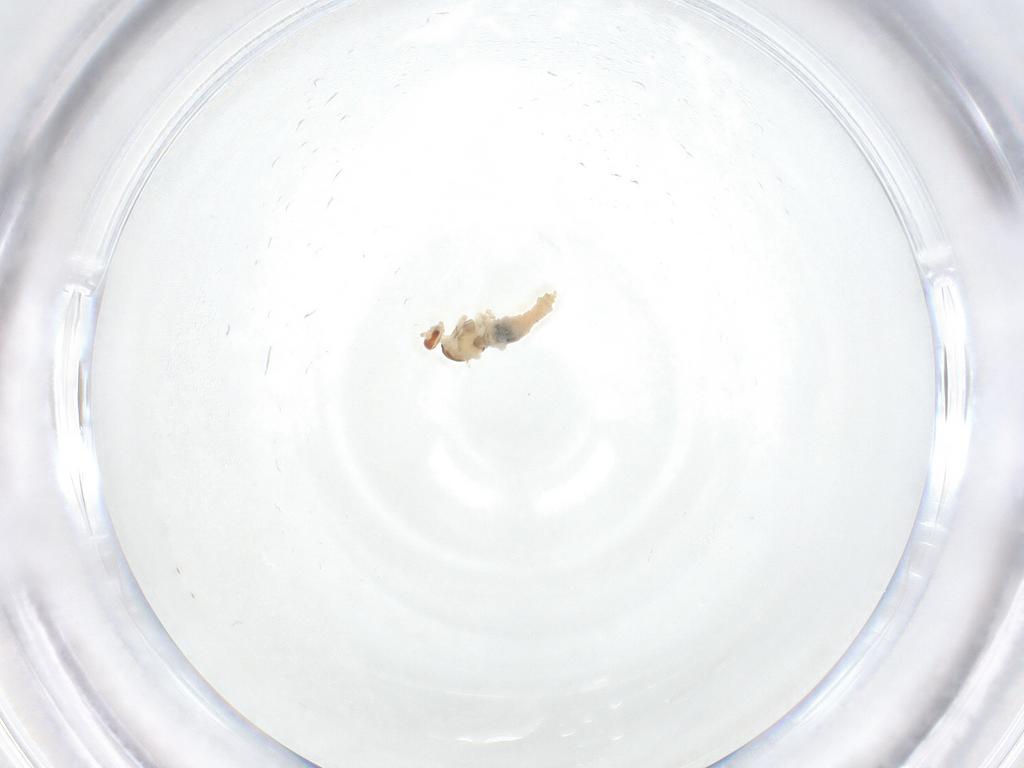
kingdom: Animalia
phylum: Arthropoda
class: Insecta
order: Diptera
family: Cecidomyiidae
